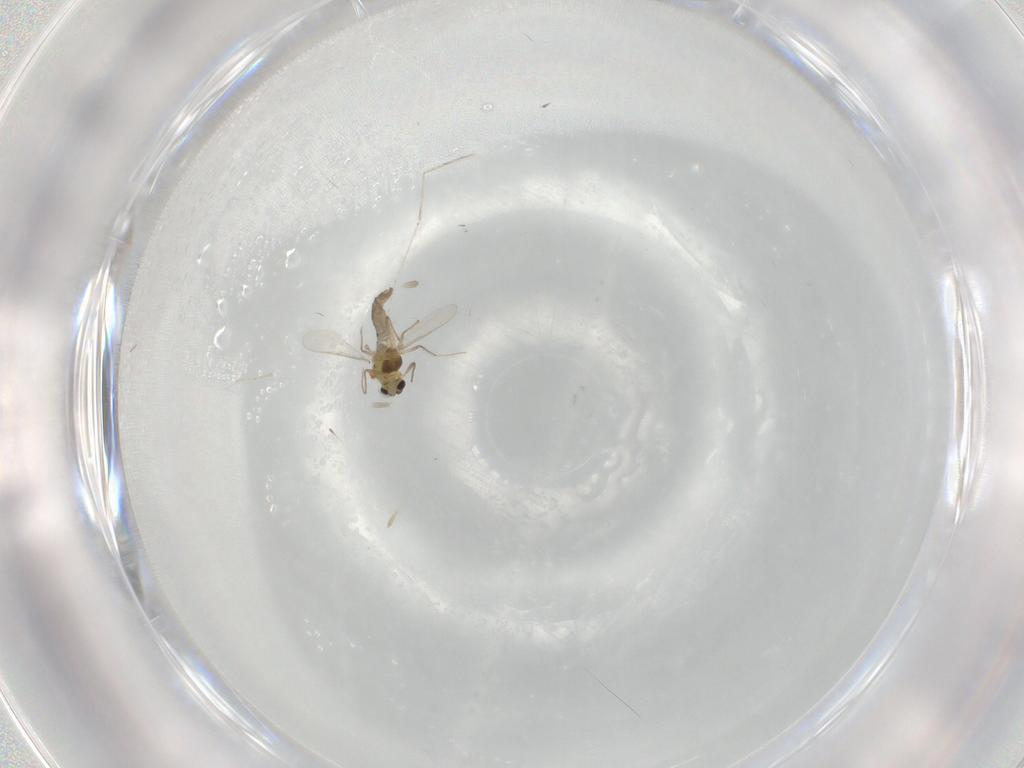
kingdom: Animalia
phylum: Arthropoda
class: Insecta
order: Diptera
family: Chironomidae
